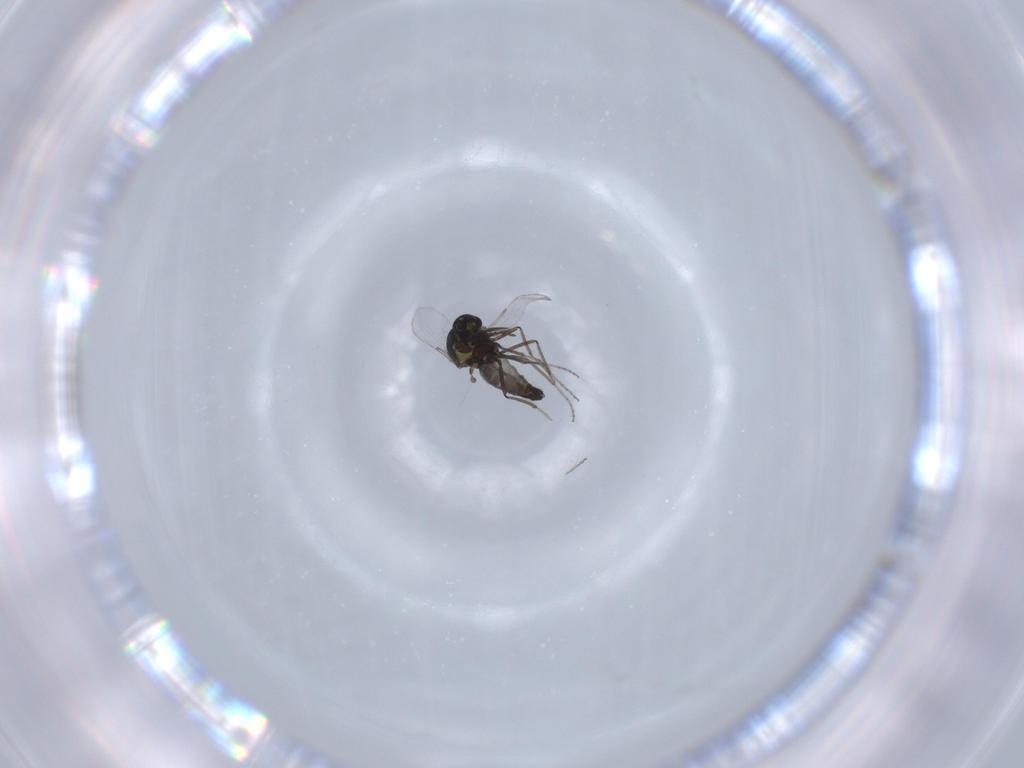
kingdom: Animalia
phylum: Arthropoda
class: Insecta
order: Diptera
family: Ceratopogonidae
